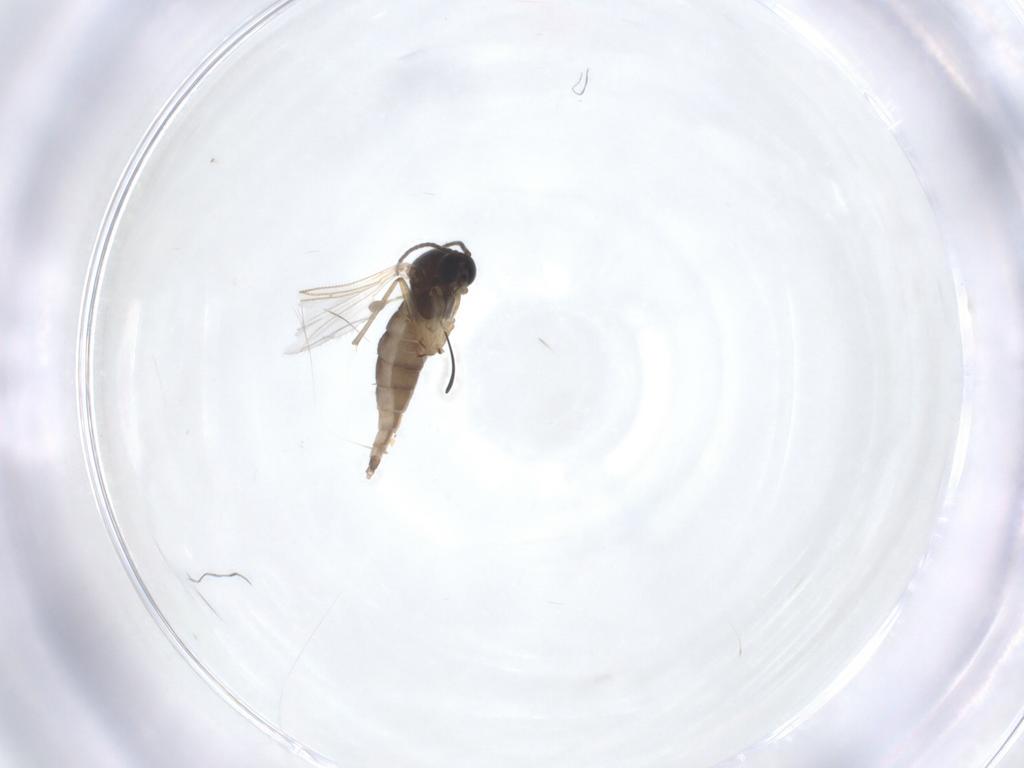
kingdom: Animalia
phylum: Arthropoda
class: Insecta
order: Diptera
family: Sciaridae
